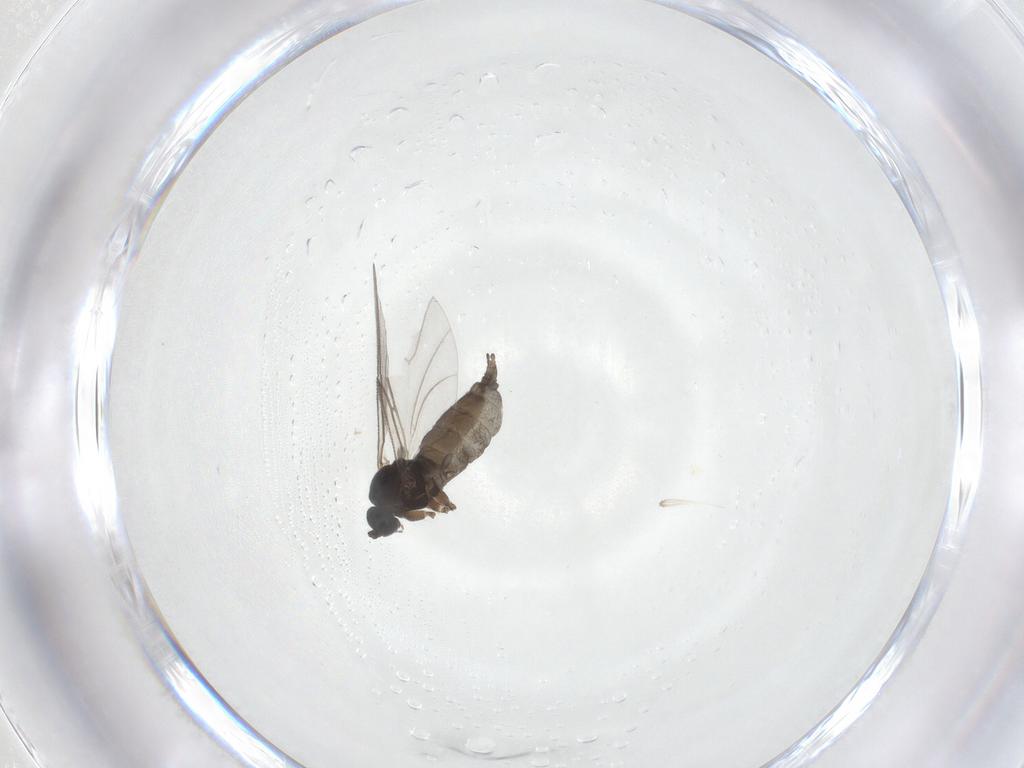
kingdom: Animalia
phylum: Arthropoda
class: Insecta
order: Diptera
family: Sciaridae
